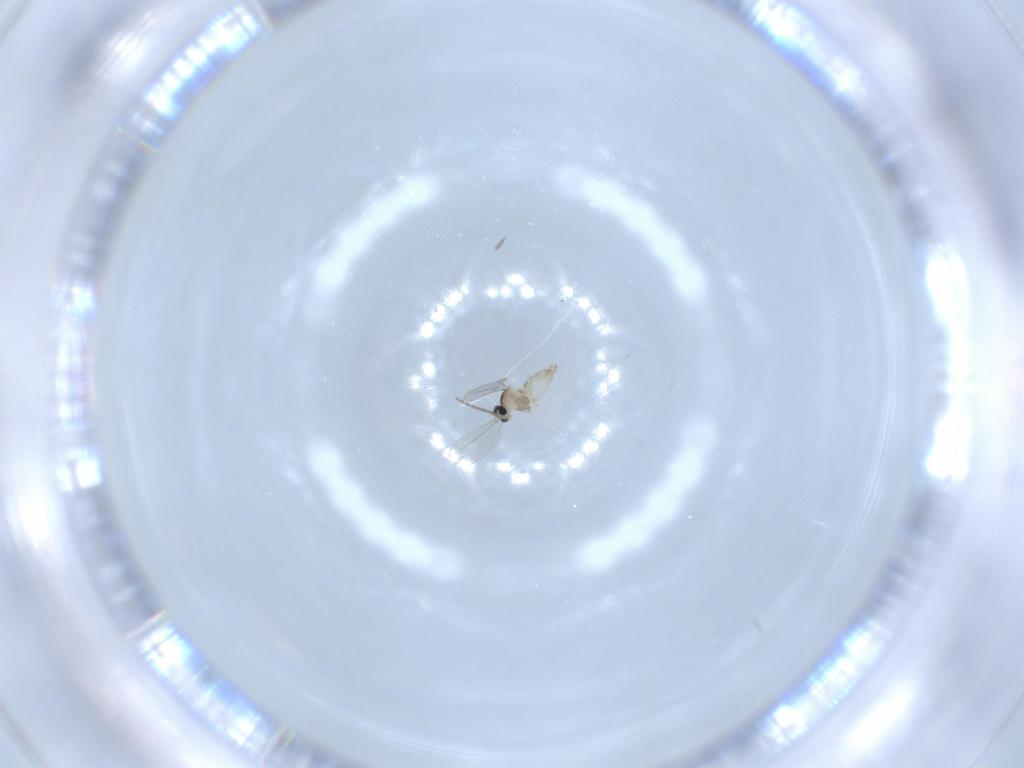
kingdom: Animalia
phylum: Arthropoda
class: Insecta
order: Diptera
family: Cecidomyiidae
